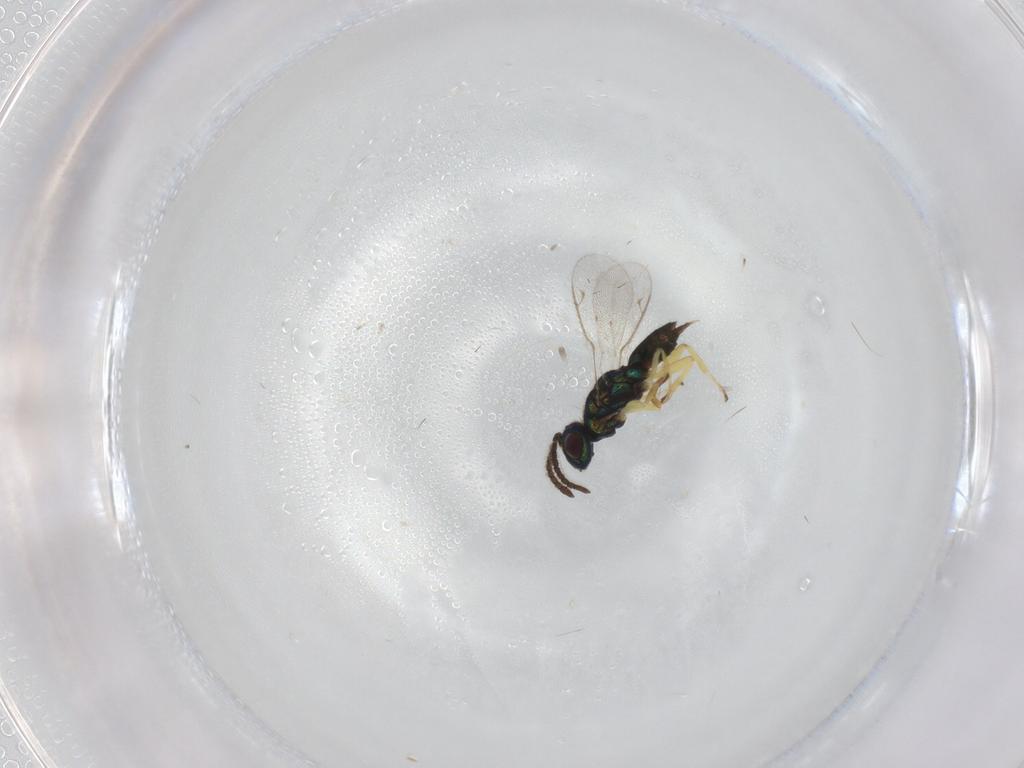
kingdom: Animalia
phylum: Arthropoda
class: Insecta
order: Hymenoptera
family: Eupelmidae
